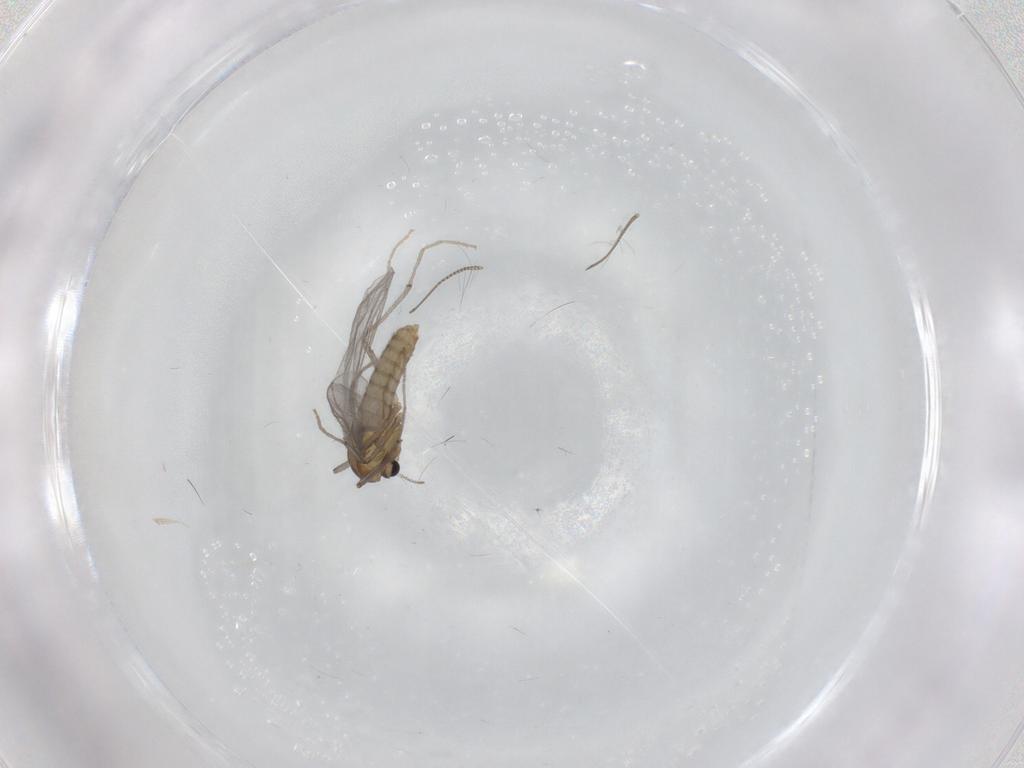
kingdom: Animalia
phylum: Arthropoda
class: Insecta
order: Diptera
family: Chironomidae
